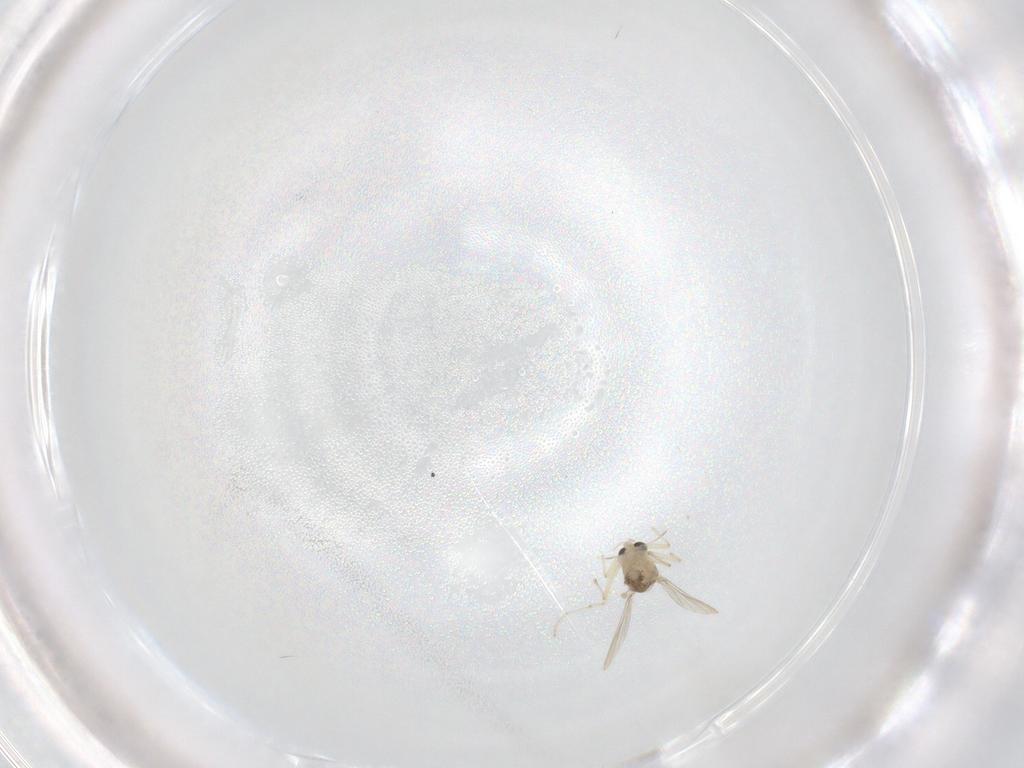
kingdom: Animalia
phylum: Arthropoda
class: Insecta
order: Diptera
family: Chironomidae
